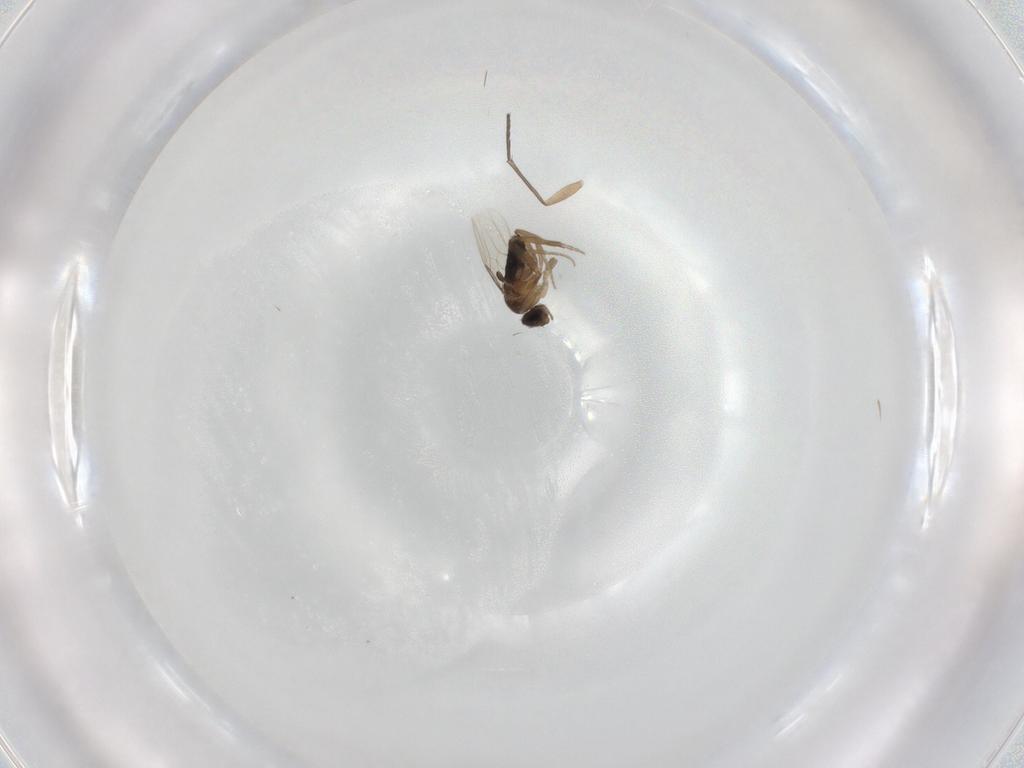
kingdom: Animalia
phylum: Arthropoda
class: Insecta
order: Diptera
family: Phoridae
